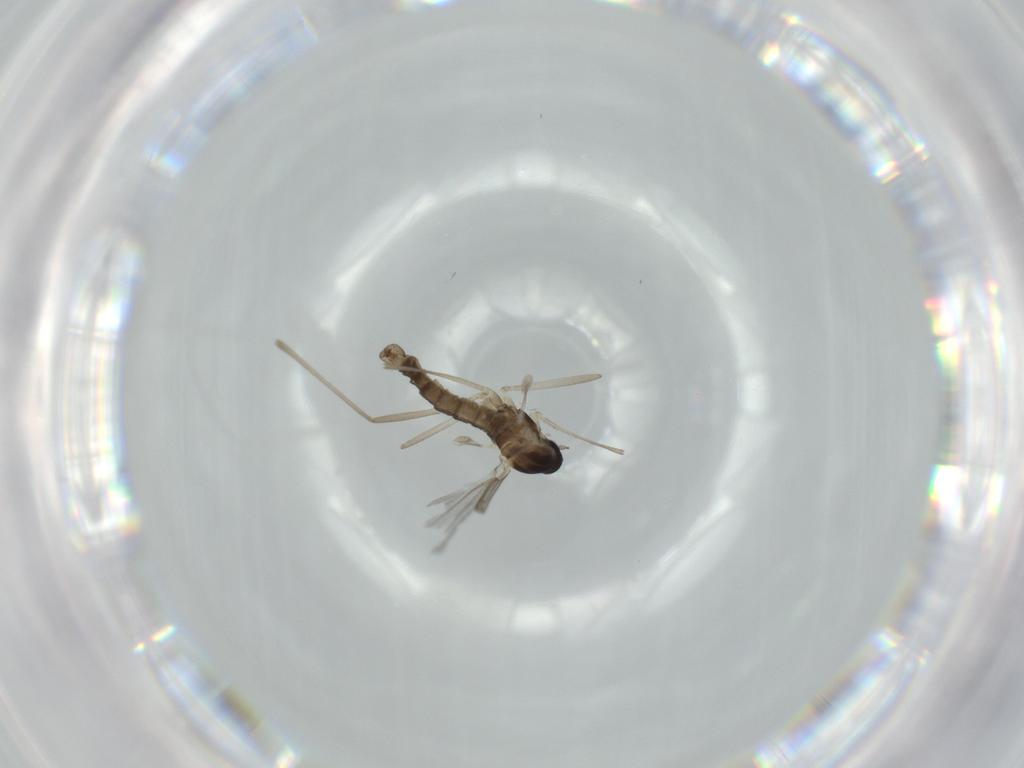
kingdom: Animalia
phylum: Arthropoda
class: Insecta
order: Diptera
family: Cecidomyiidae
